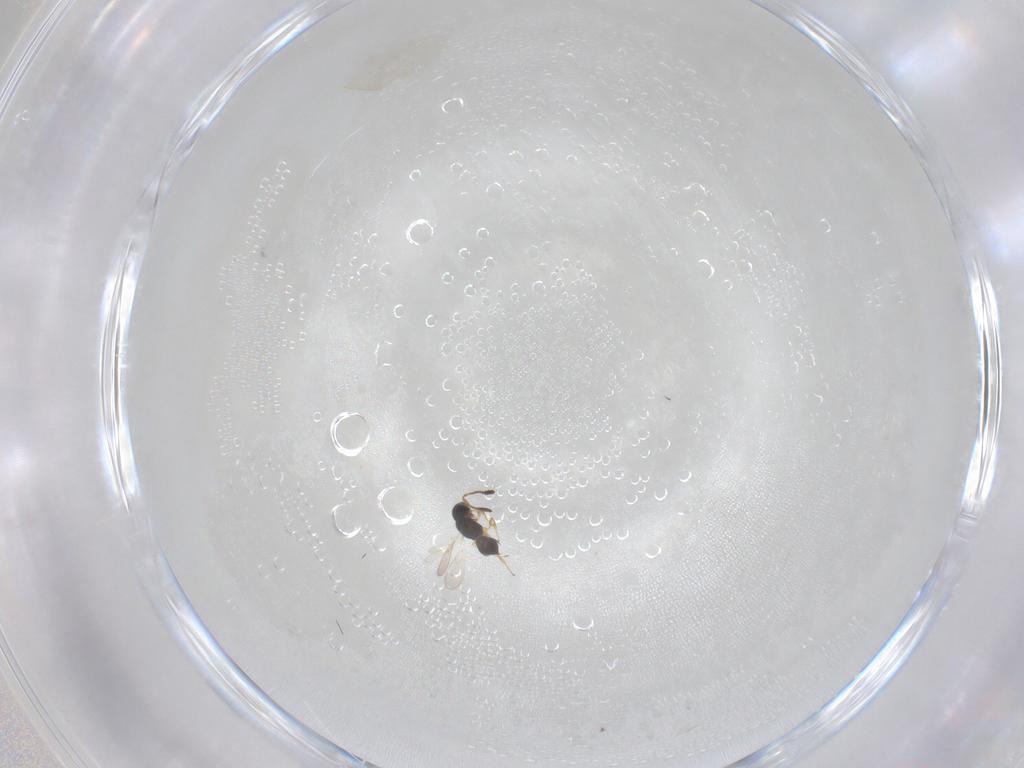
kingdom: Animalia
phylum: Arthropoda
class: Insecta
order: Hymenoptera
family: Scelionidae
